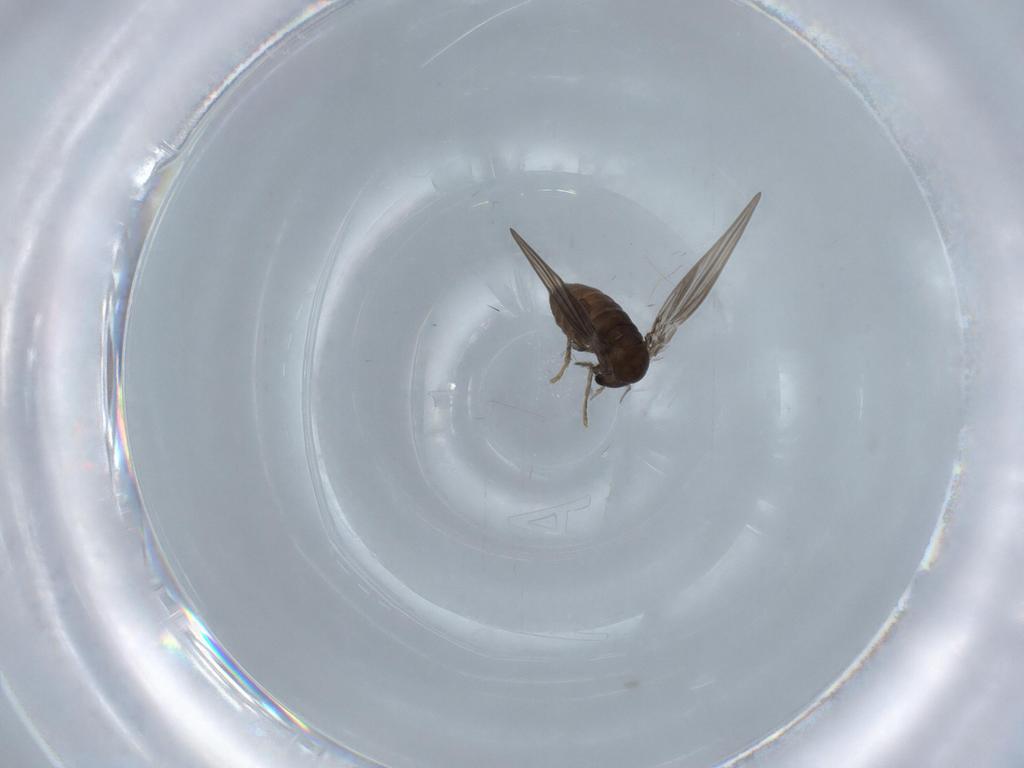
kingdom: Animalia
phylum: Arthropoda
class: Insecta
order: Diptera
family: Psychodidae
